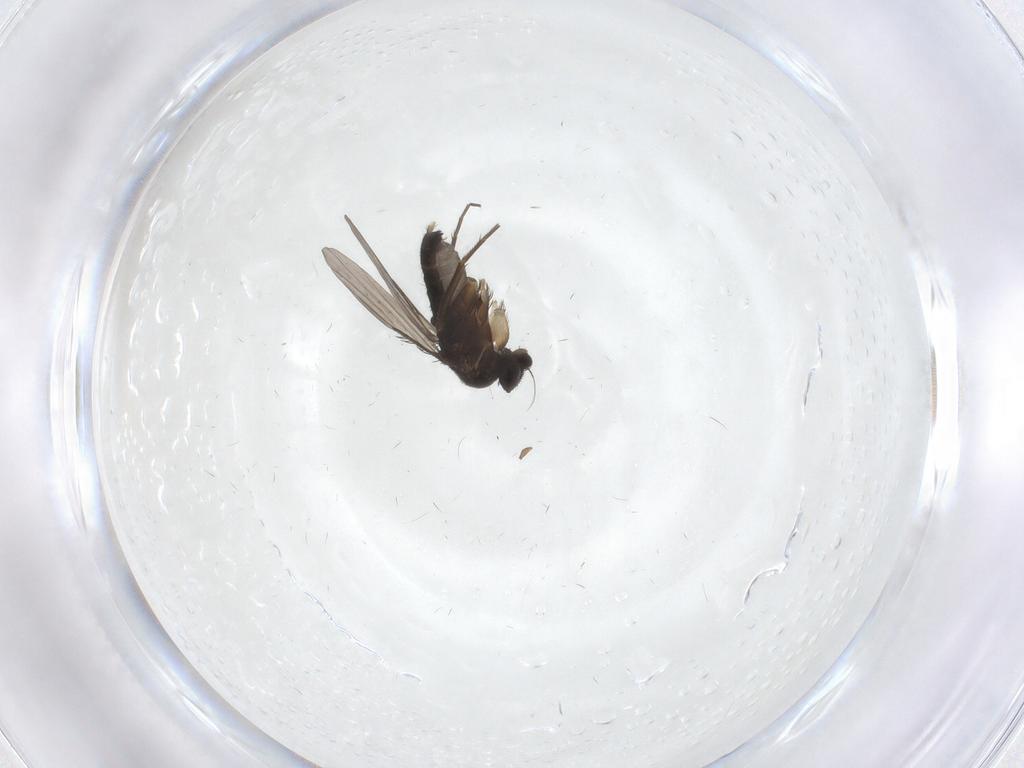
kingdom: Animalia
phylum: Arthropoda
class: Insecta
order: Diptera
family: Phoridae
